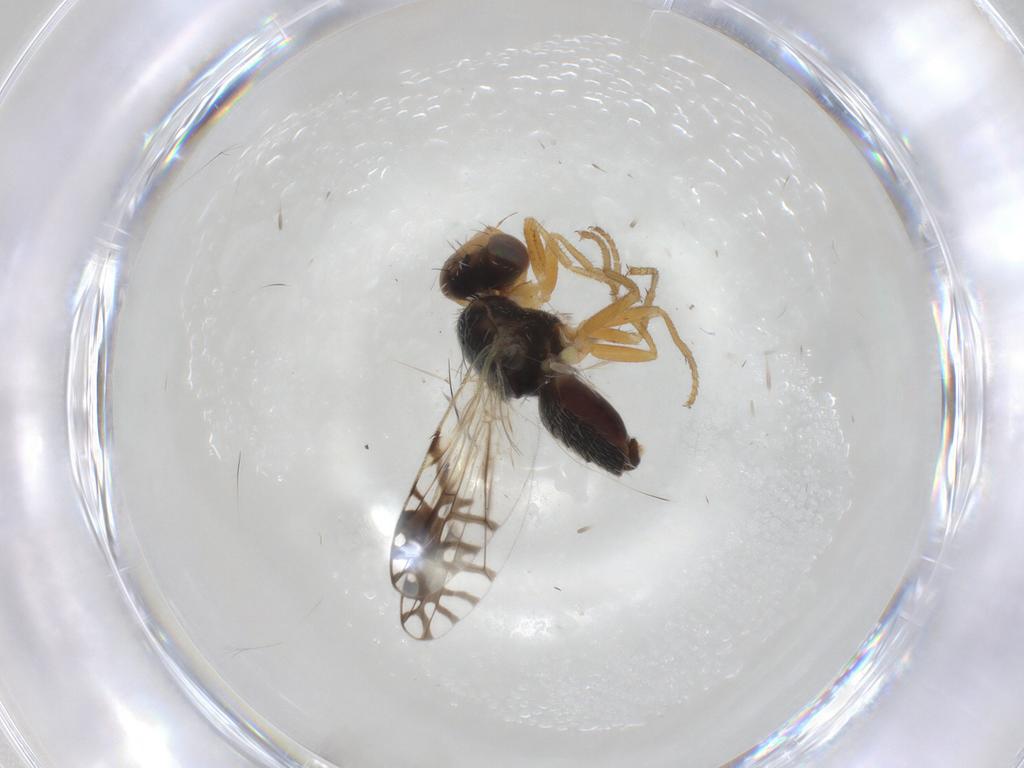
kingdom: Animalia
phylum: Arthropoda
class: Insecta
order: Diptera
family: Tephritidae
